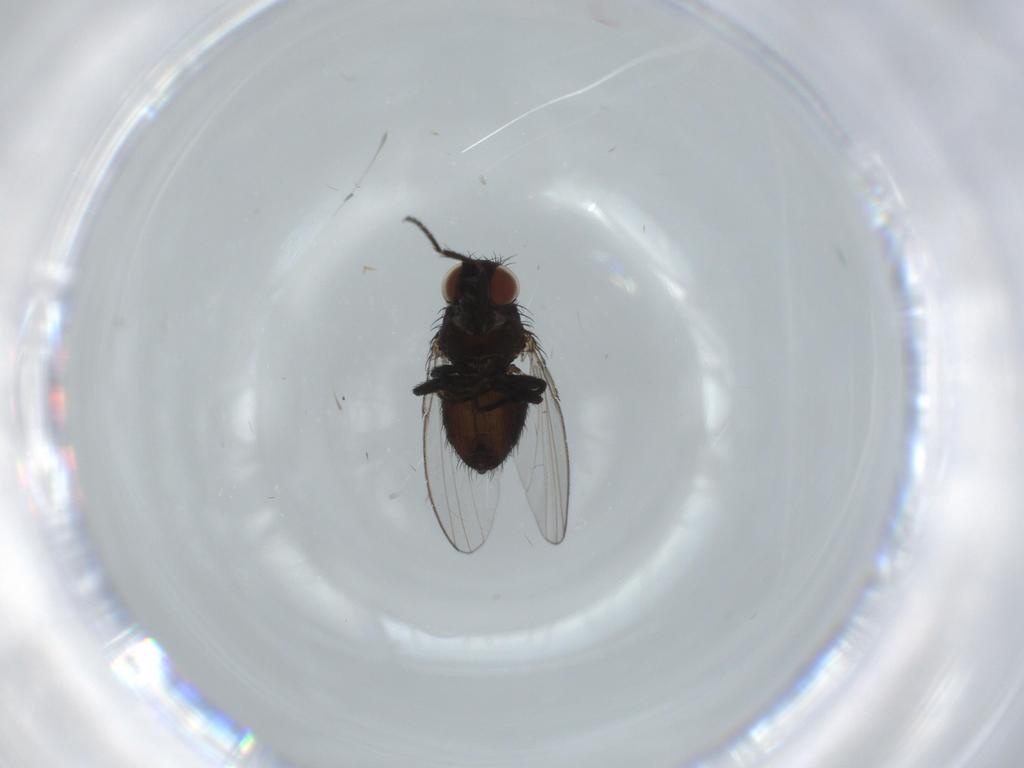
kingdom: Animalia
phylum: Arthropoda
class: Insecta
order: Diptera
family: Milichiidae
